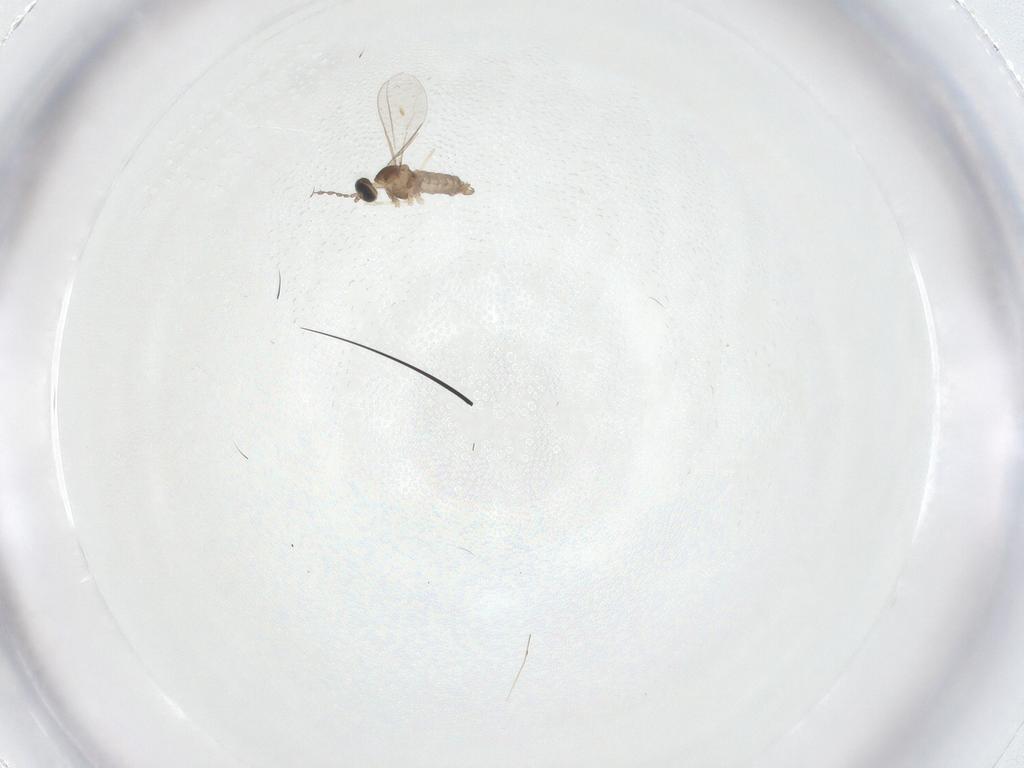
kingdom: Animalia
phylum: Arthropoda
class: Insecta
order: Diptera
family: Cecidomyiidae
